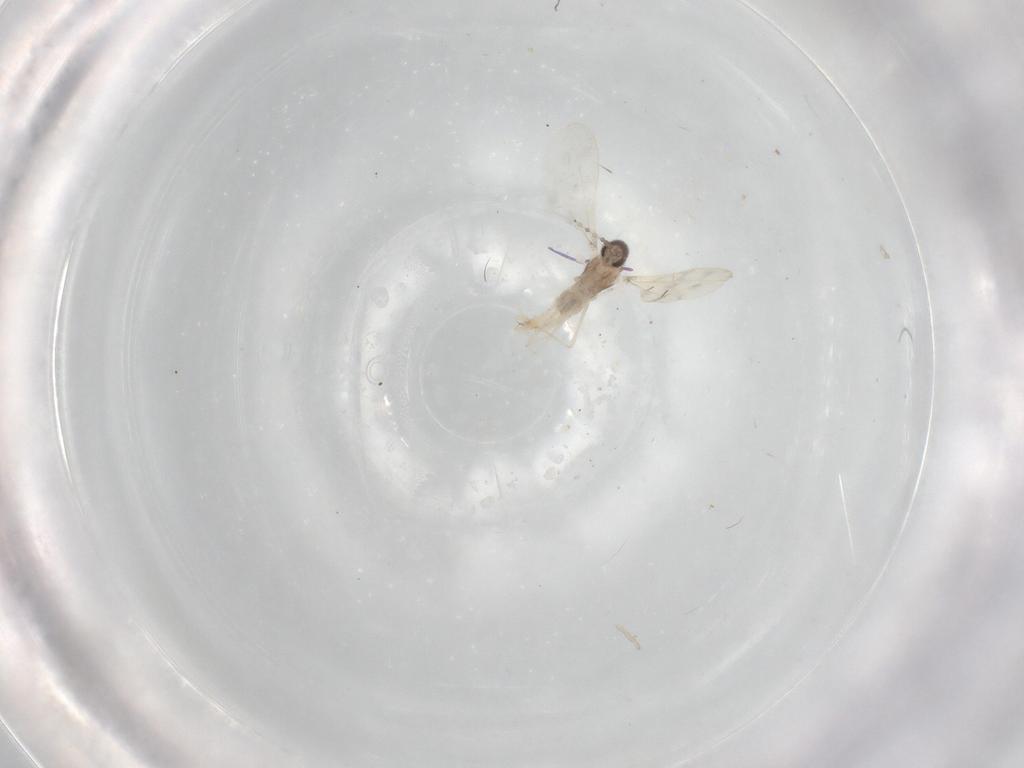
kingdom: Animalia
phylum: Arthropoda
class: Insecta
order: Diptera
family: Cecidomyiidae
